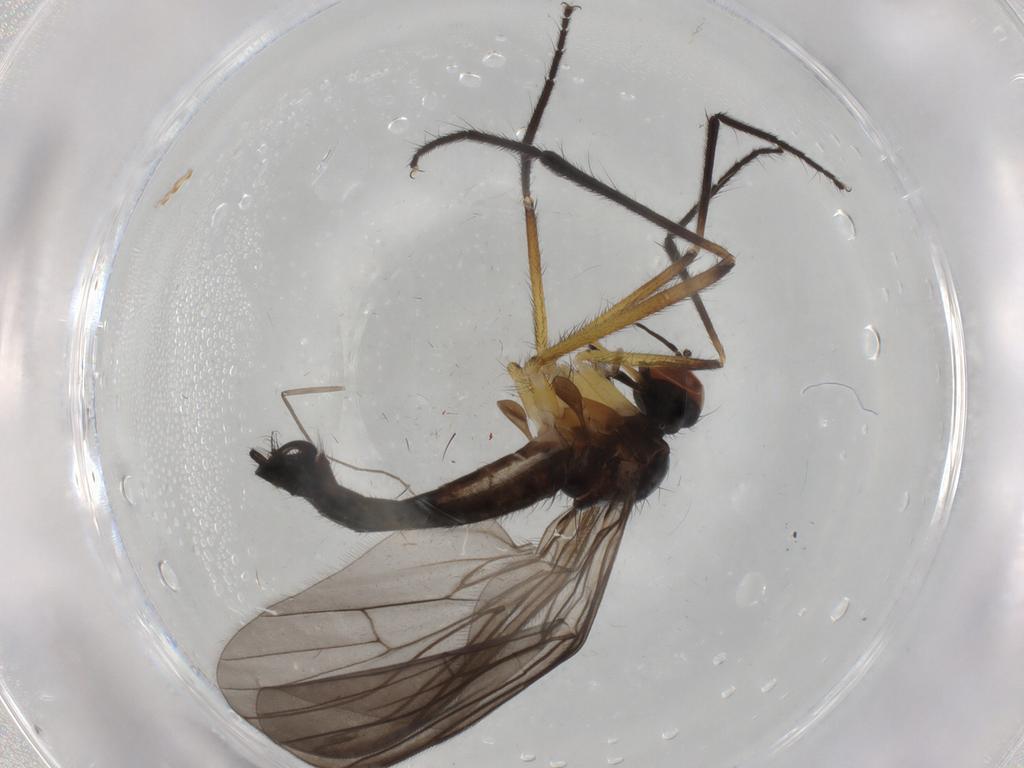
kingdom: Animalia
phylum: Arthropoda
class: Insecta
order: Diptera
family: Empididae
